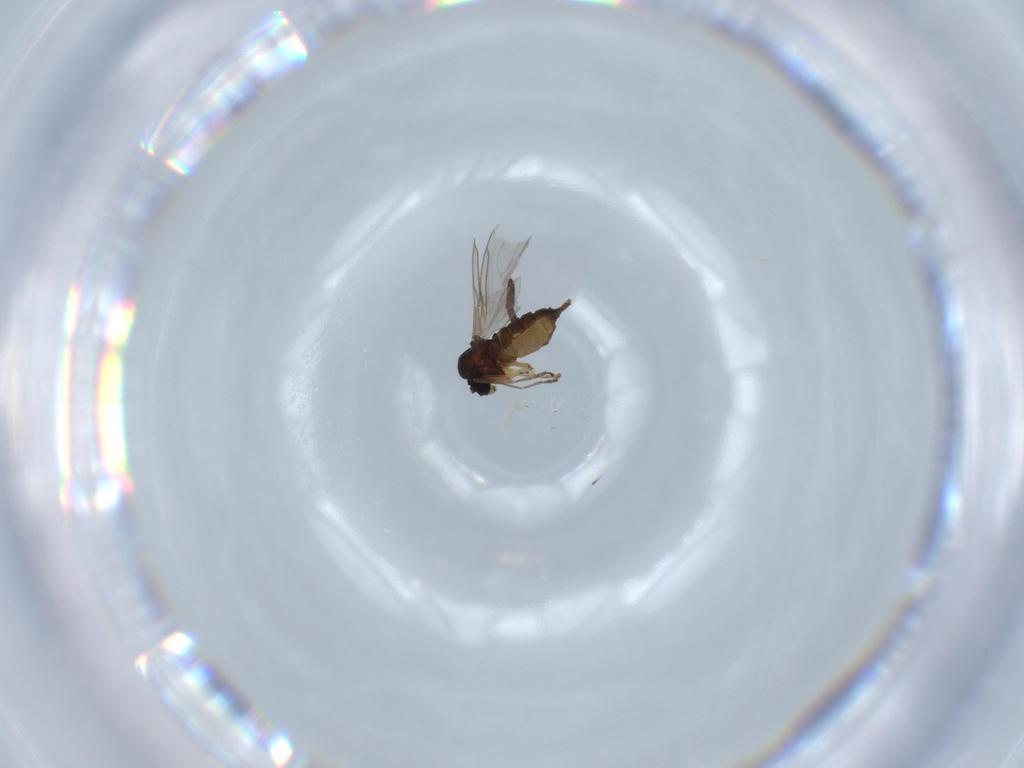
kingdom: Animalia
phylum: Arthropoda
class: Insecta
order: Diptera
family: Sciaridae
